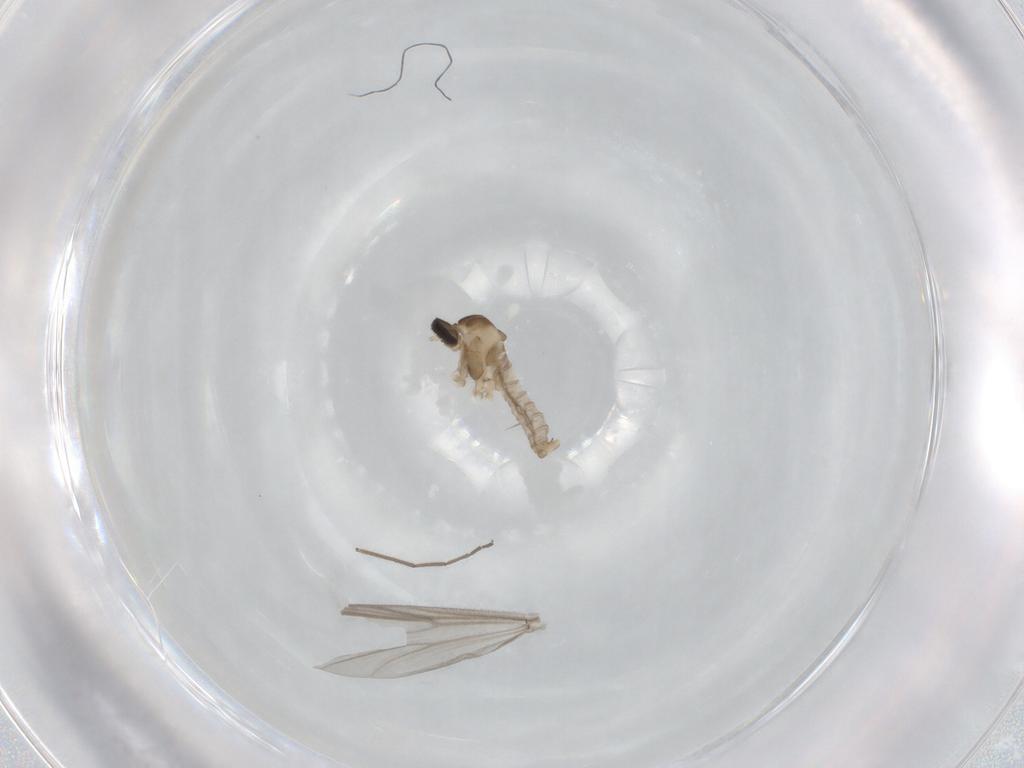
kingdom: Animalia
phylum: Arthropoda
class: Insecta
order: Diptera
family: Cecidomyiidae
